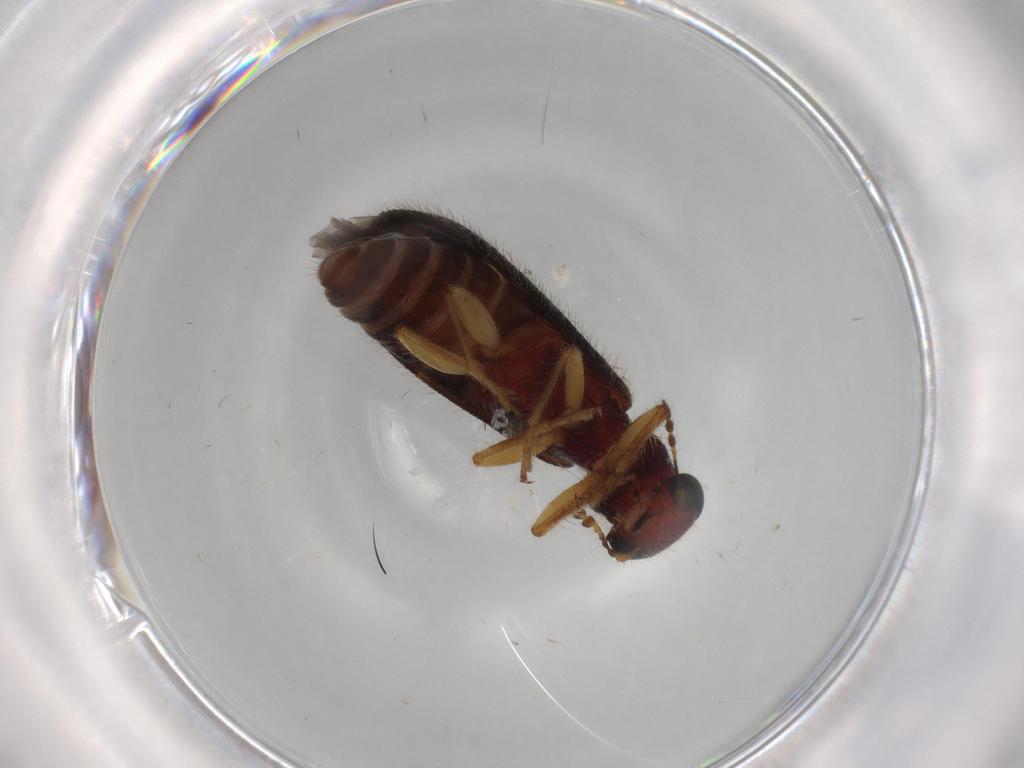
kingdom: Animalia
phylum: Arthropoda
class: Insecta
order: Coleoptera
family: Cleridae
